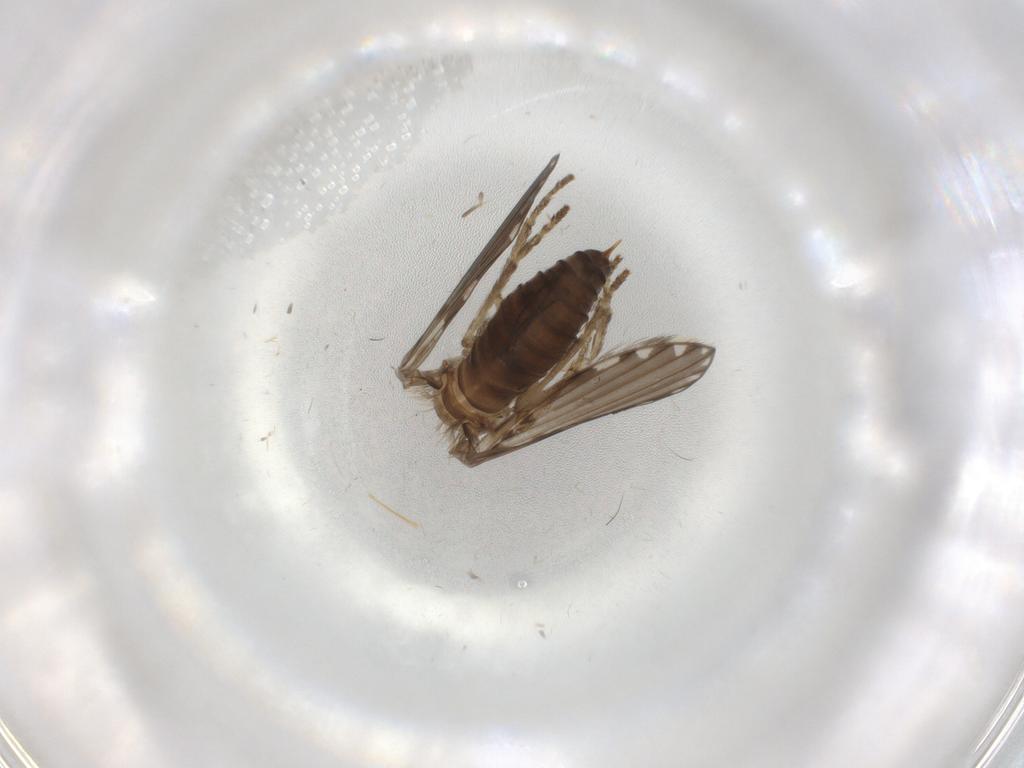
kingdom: Animalia
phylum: Arthropoda
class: Insecta
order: Diptera
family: Psychodidae
